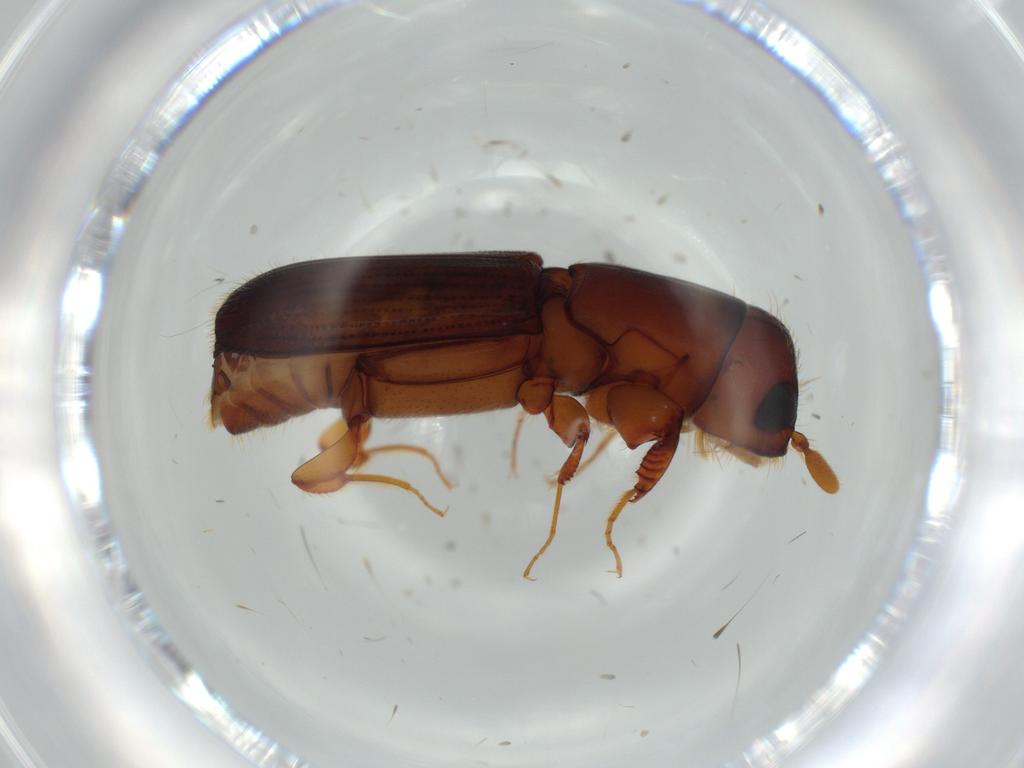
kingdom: Animalia
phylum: Arthropoda
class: Insecta
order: Coleoptera
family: Curculionidae
